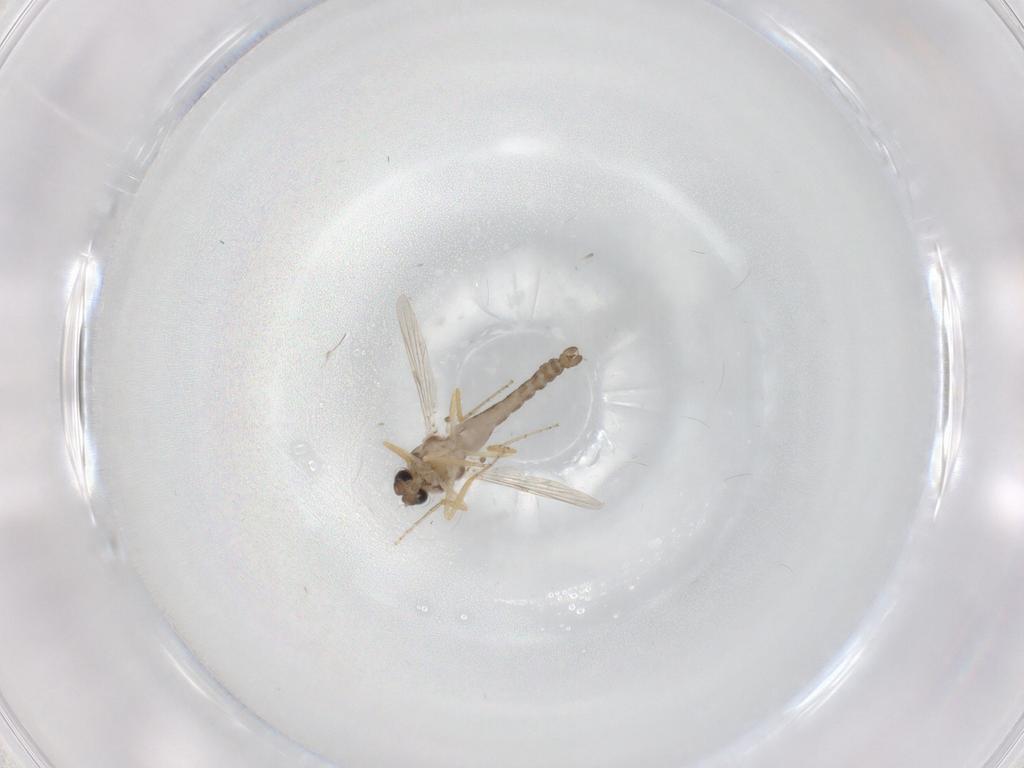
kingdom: Animalia
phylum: Arthropoda
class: Insecta
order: Diptera
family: Ceratopogonidae
